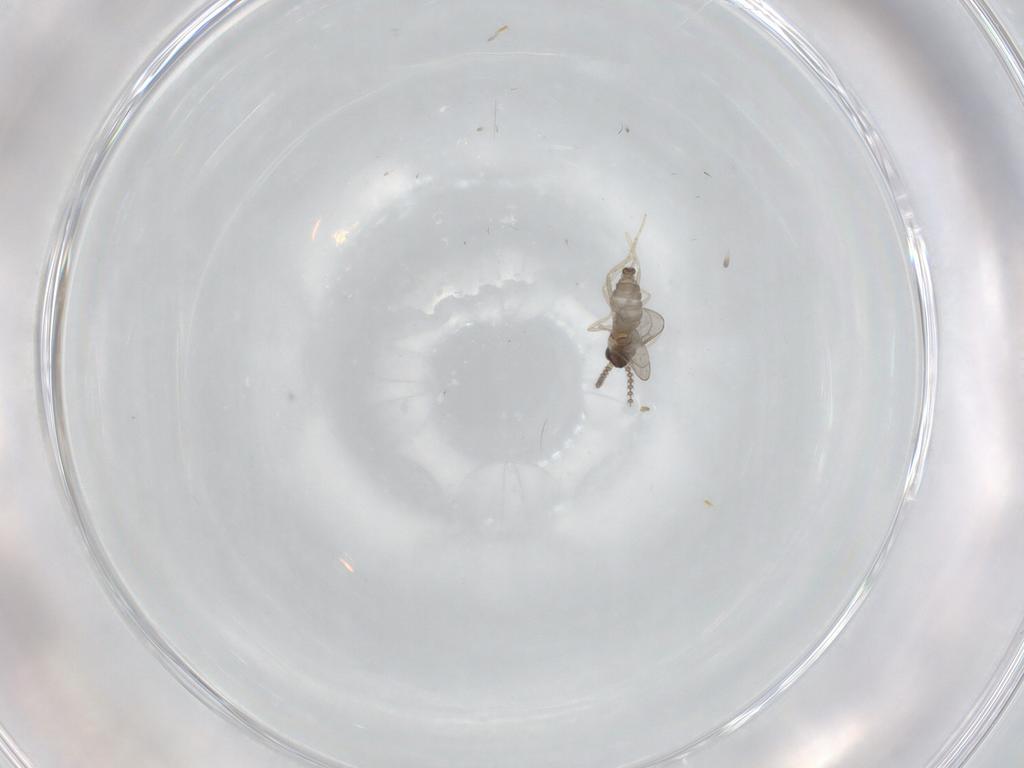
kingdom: Animalia
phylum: Arthropoda
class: Insecta
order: Diptera
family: Cecidomyiidae
